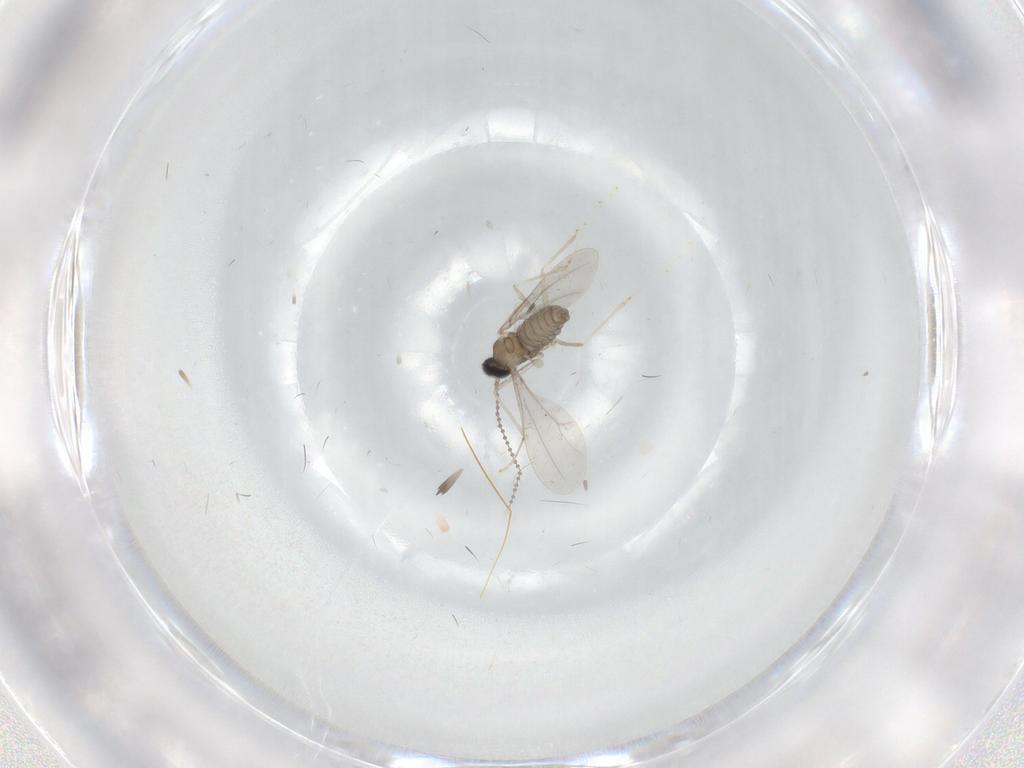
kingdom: Animalia
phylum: Arthropoda
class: Insecta
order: Diptera
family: Cecidomyiidae
